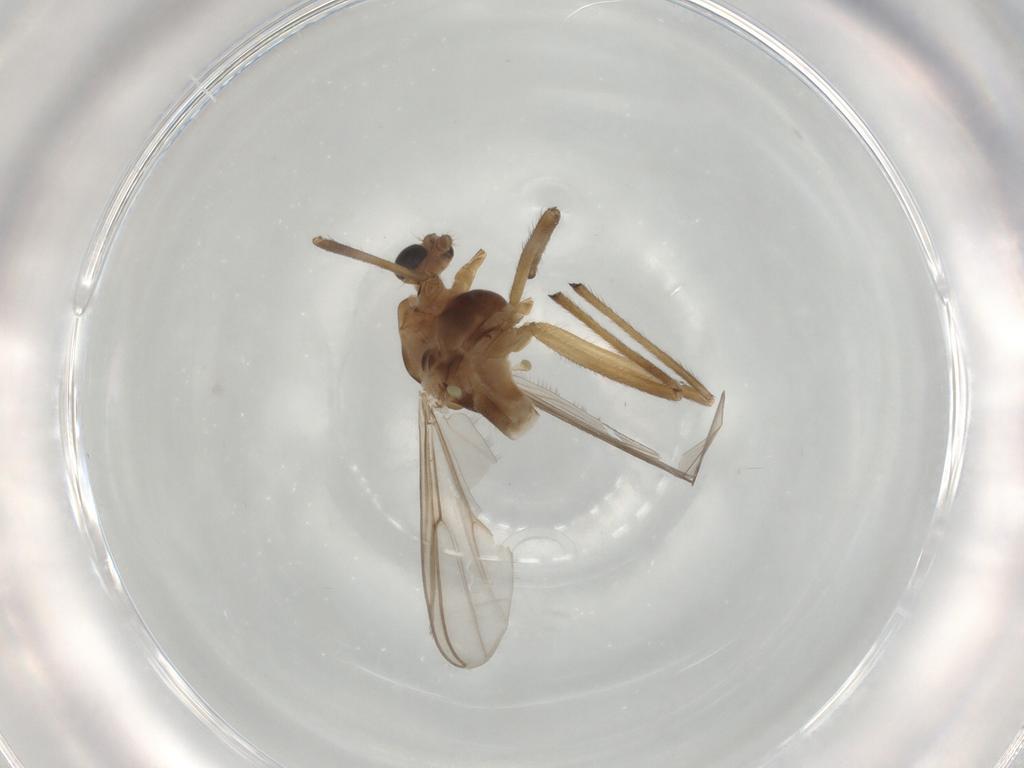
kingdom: Animalia
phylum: Arthropoda
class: Insecta
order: Diptera
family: Chironomidae
